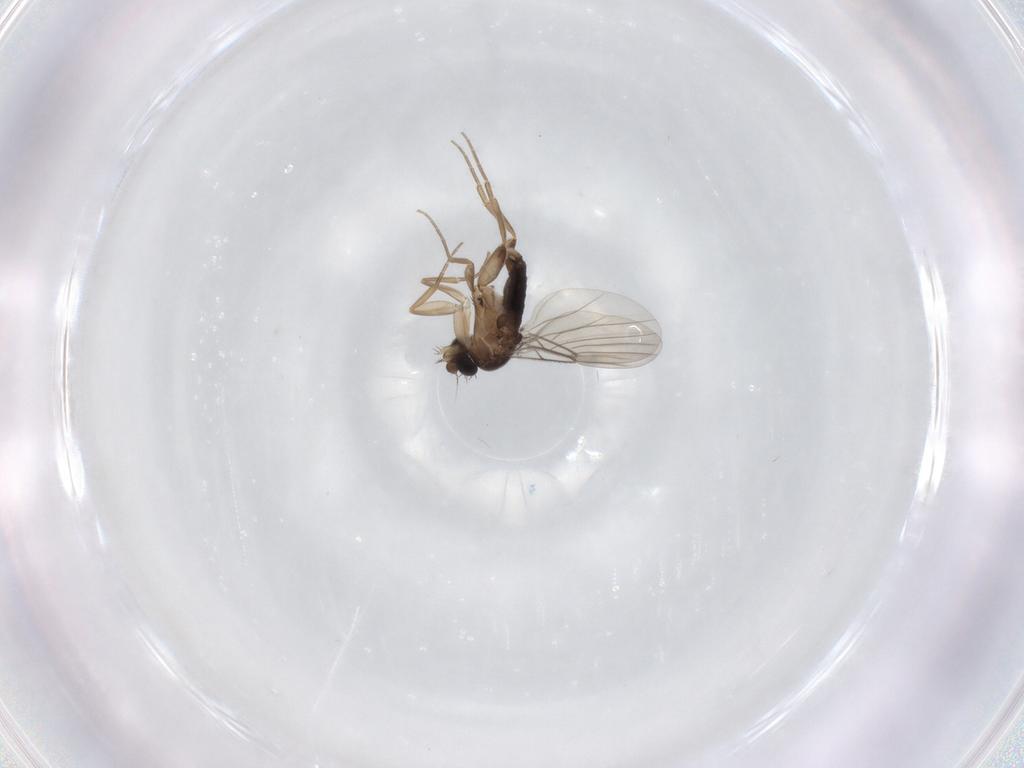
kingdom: Animalia
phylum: Arthropoda
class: Insecta
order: Diptera
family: Phoridae
